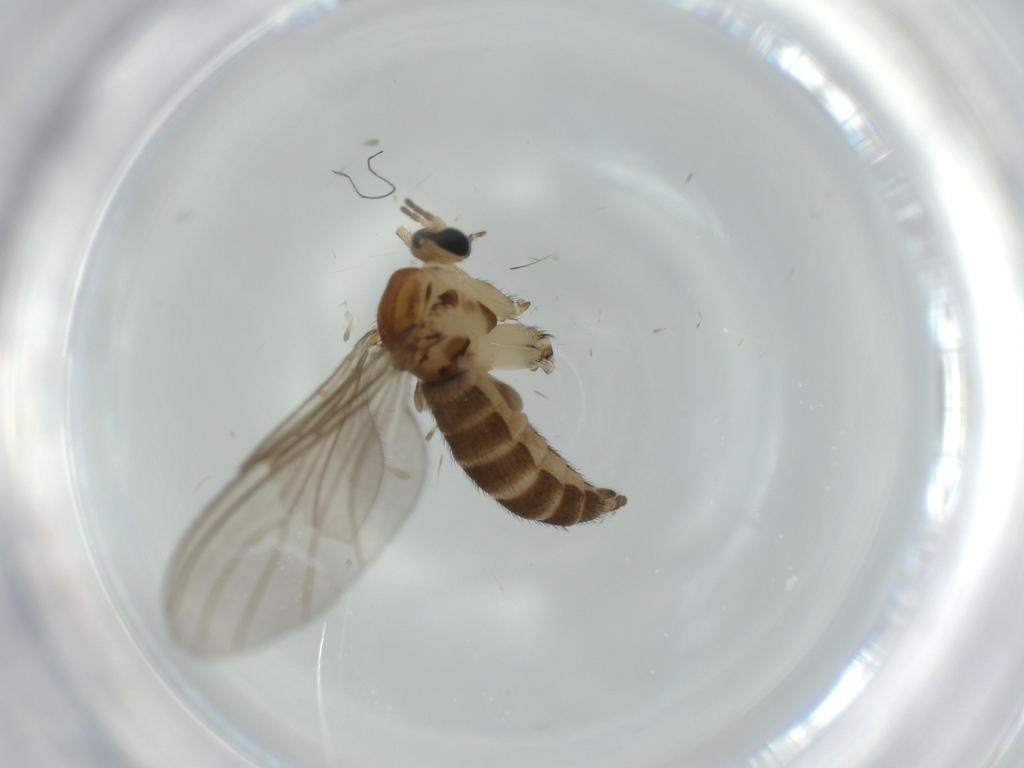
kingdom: Animalia
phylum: Arthropoda
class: Insecta
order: Diptera
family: Sciaridae
